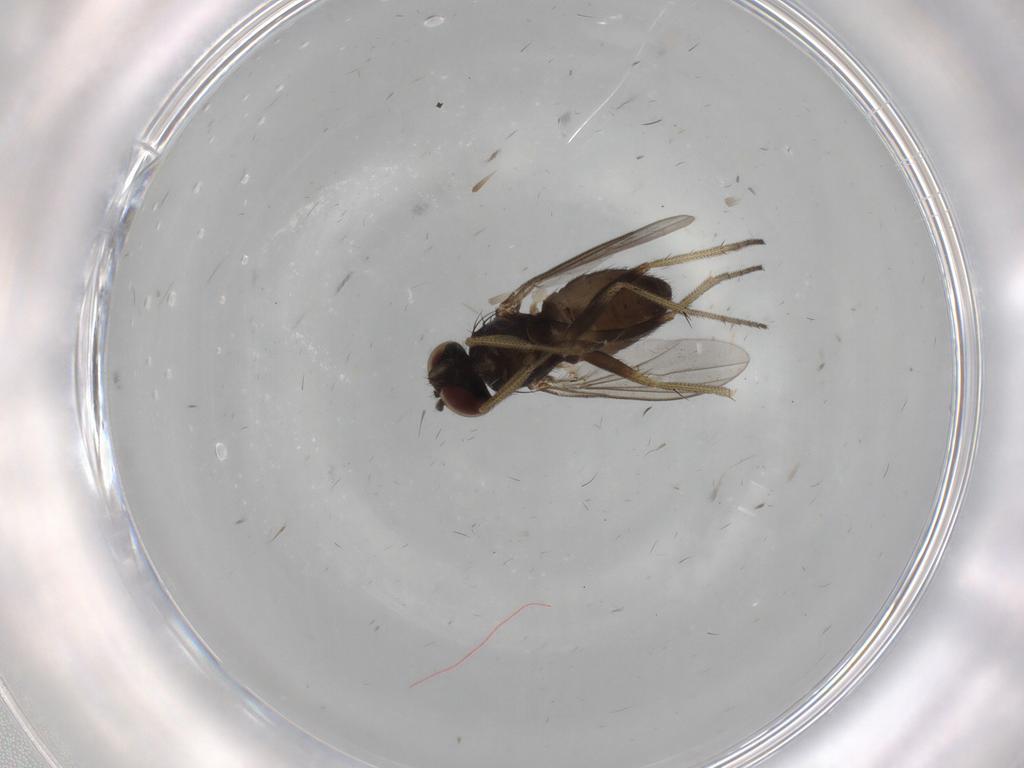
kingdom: Animalia
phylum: Arthropoda
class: Insecta
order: Diptera
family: Dolichopodidae
